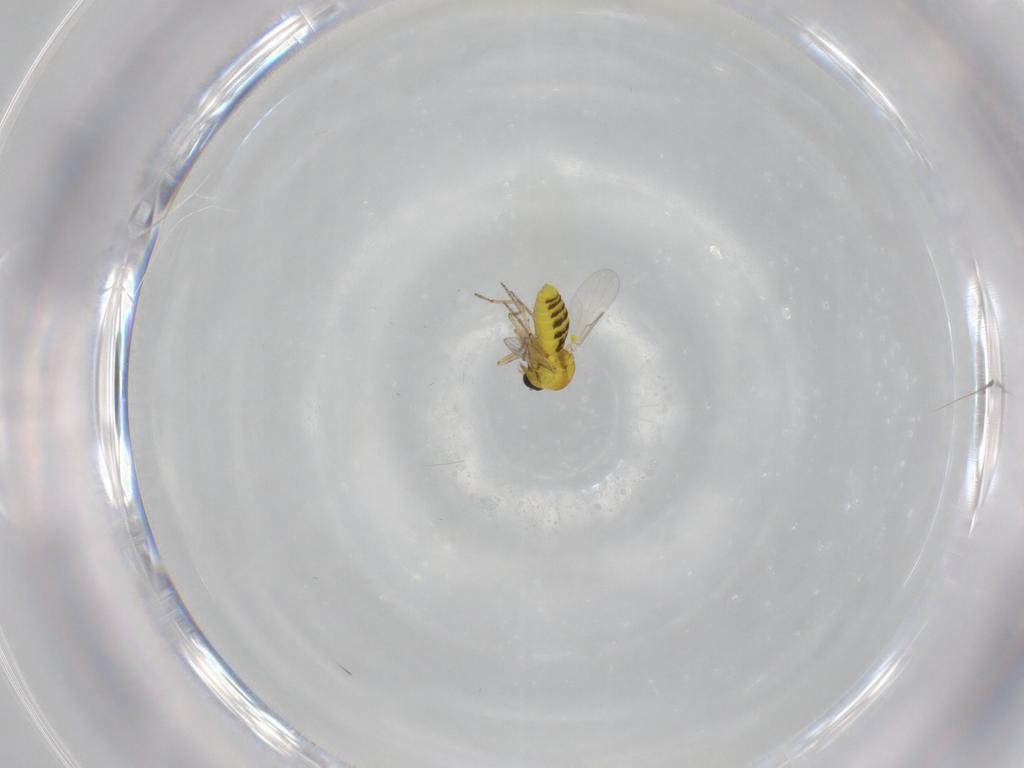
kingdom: Animalia
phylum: Arthropoda
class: Insecta
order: Diptera
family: Ceratopogonidae
